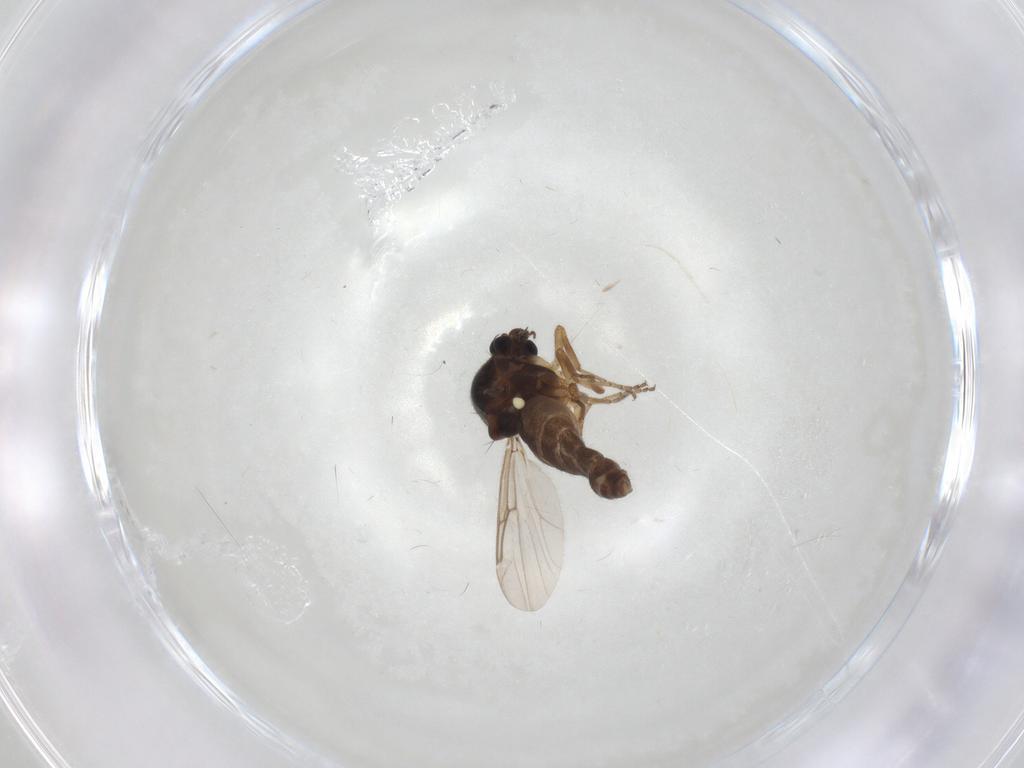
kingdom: Animalia
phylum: Arthropoda
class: Insecta
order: Diptera
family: Ceratopogonidae
